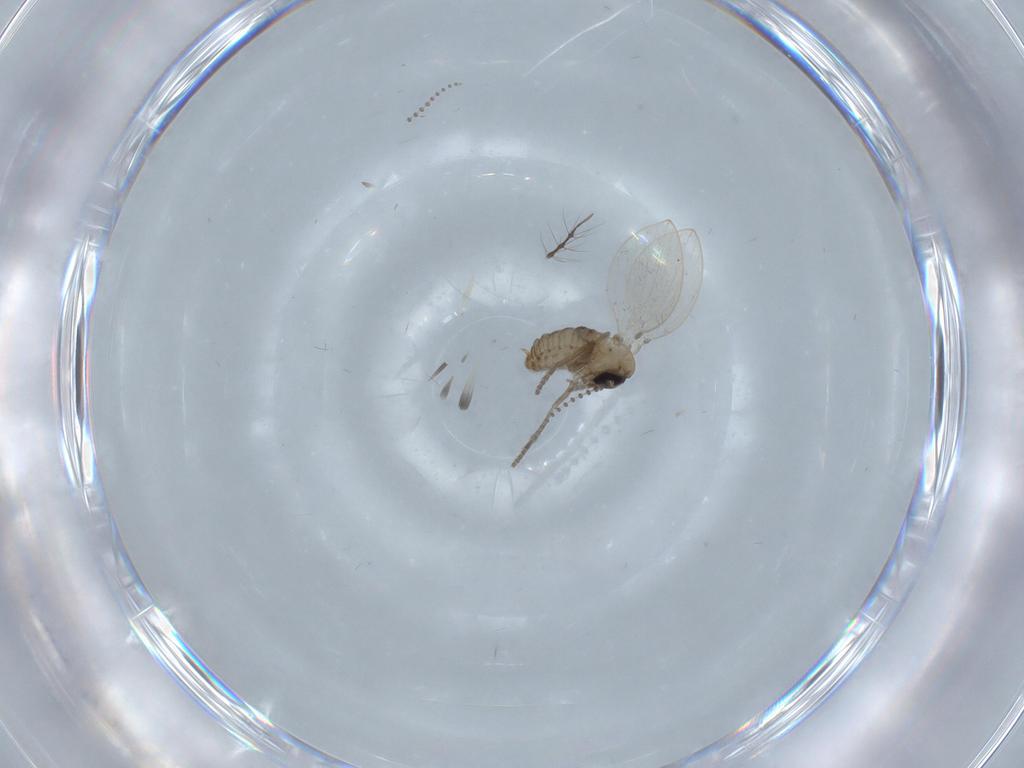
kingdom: Animalia
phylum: Arthropoda
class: Insecta
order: Diptera
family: Psychodidae
